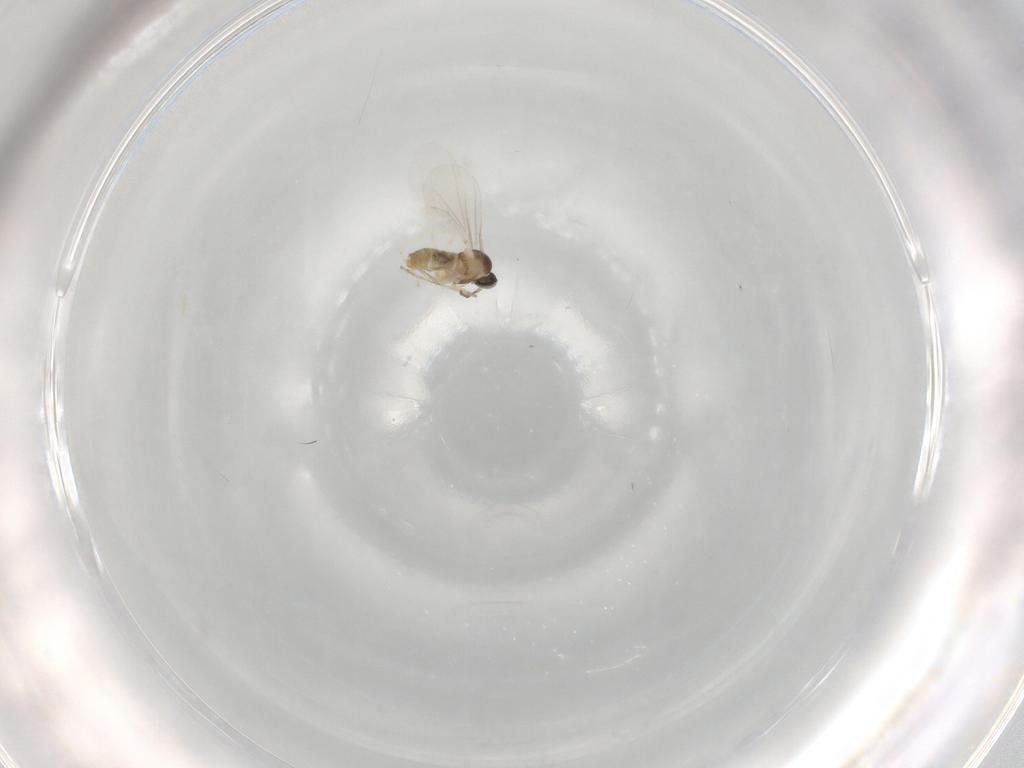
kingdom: Animalia
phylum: Arthropoda
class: Insecta
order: Diptera
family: Cecidomyiidae
